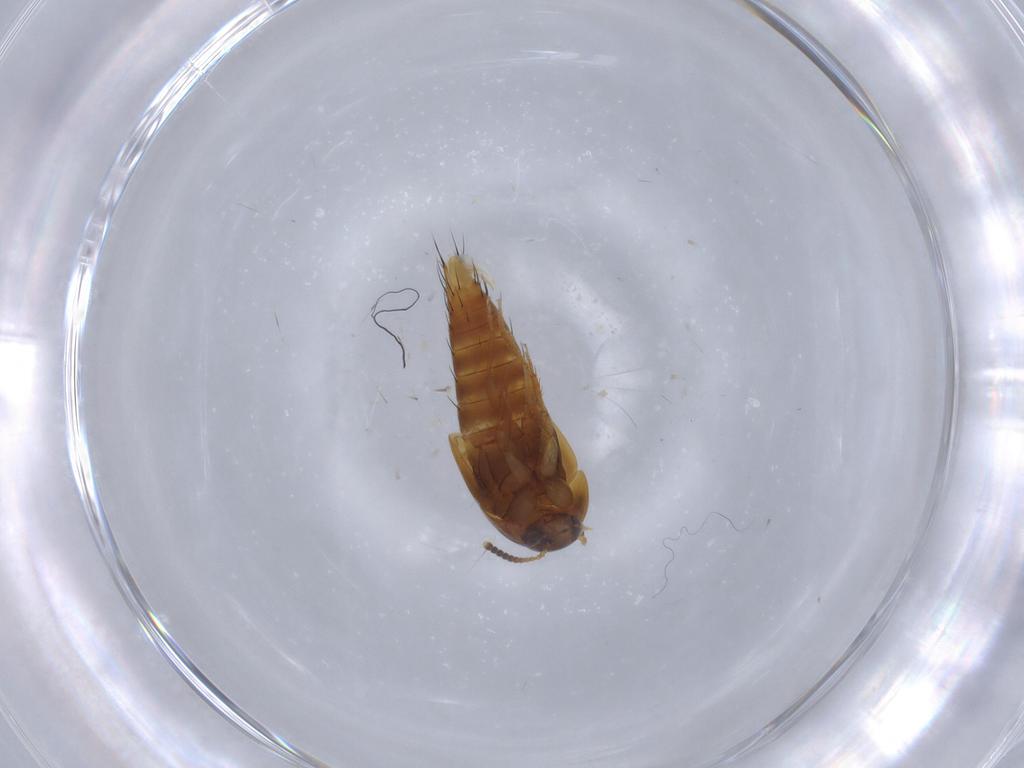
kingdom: Animalia
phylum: Arthropoda
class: Insecta
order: Coleoptera
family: Staphylinidae
